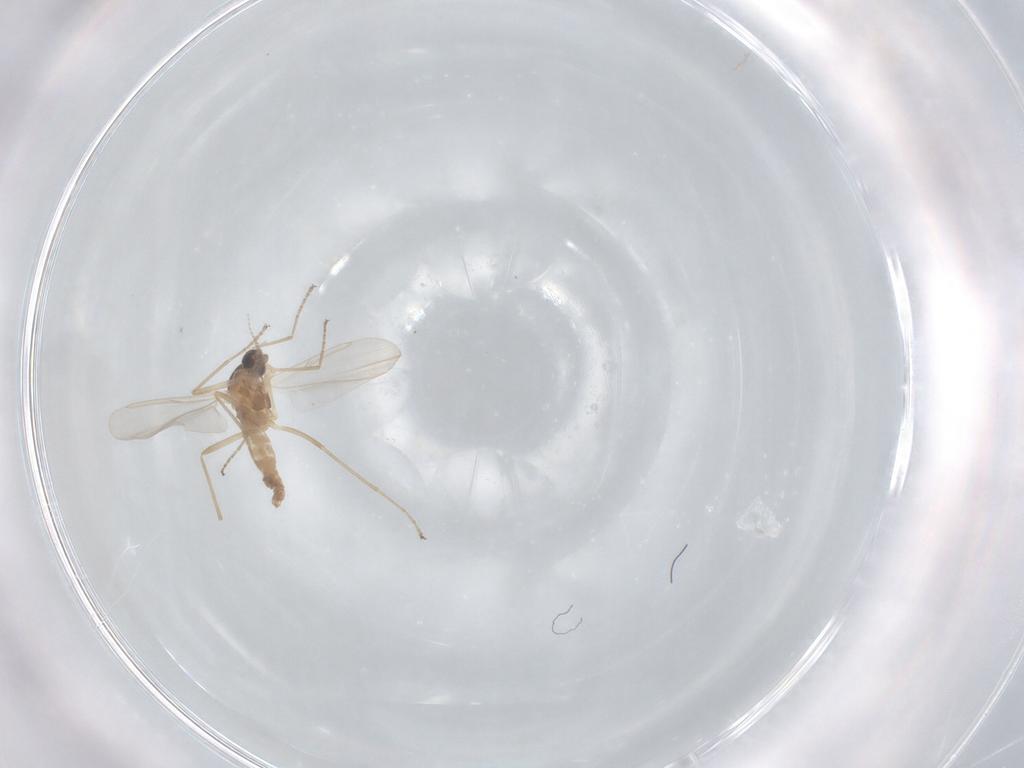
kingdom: Animalia
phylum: Arthropoda
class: Insecta
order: Diptera
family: Cecidomyiidae
